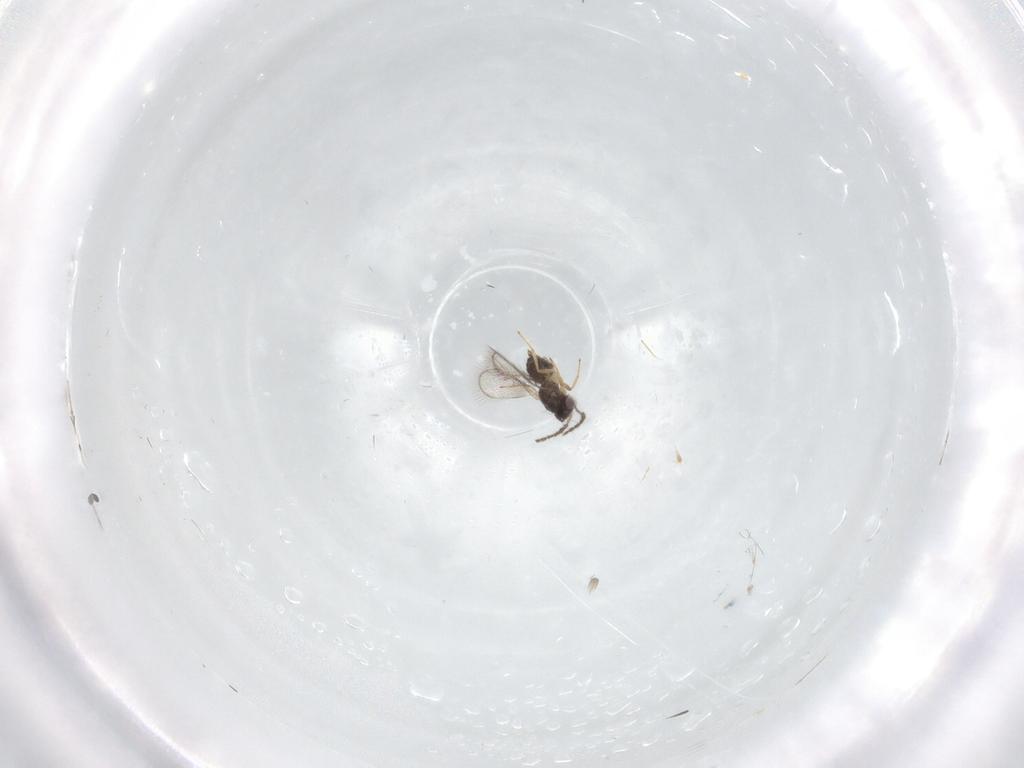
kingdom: Animalia
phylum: Arthropoda
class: Insecta
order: Hymenoptera
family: Eulophidae
